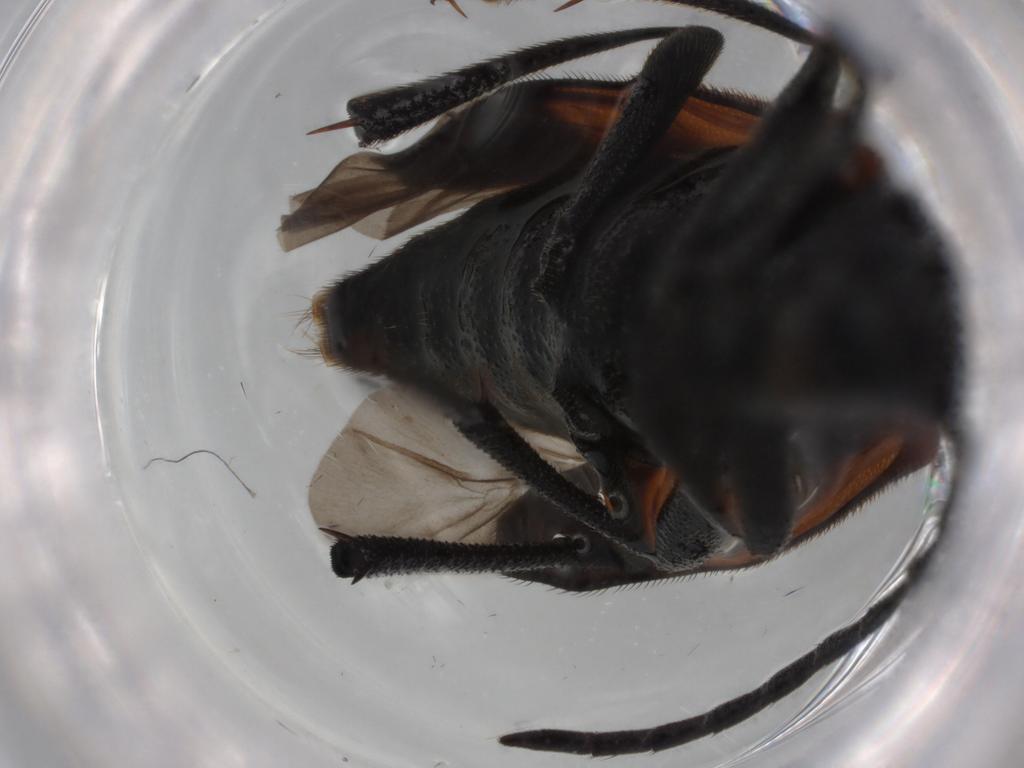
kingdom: Animalia
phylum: Arthropoda
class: Insecta
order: Coleoptera
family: Cerambycidae
